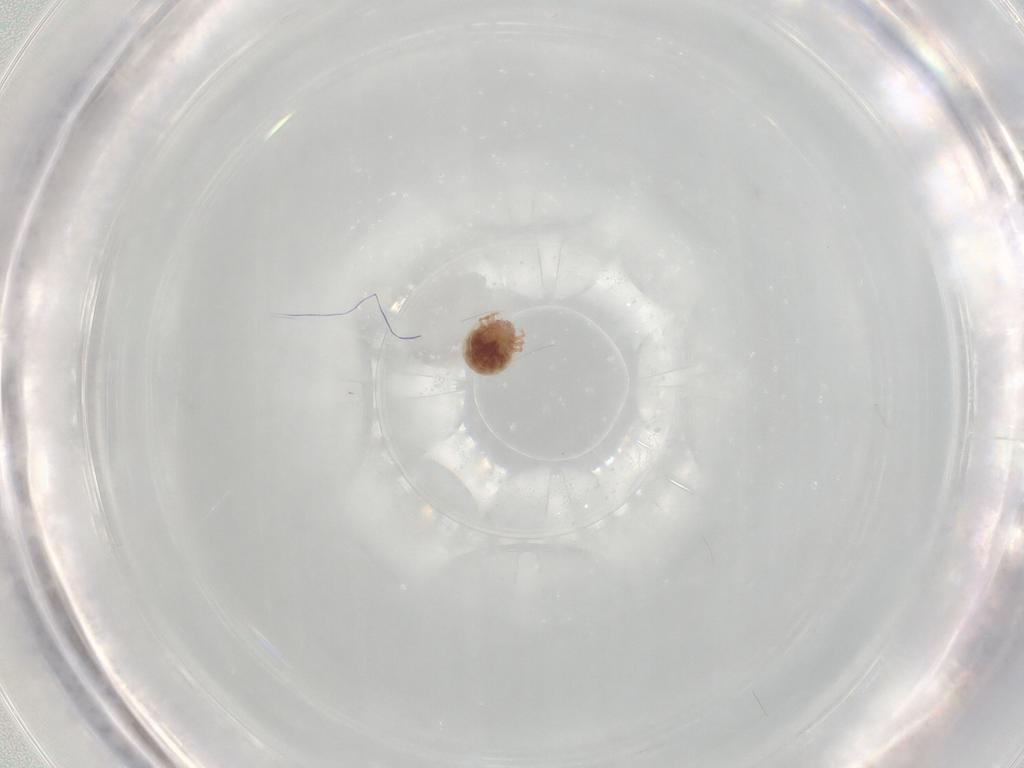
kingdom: Animalia
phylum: Arthropoda
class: Arachnida
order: Trombidiformes
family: Lebertiidae
